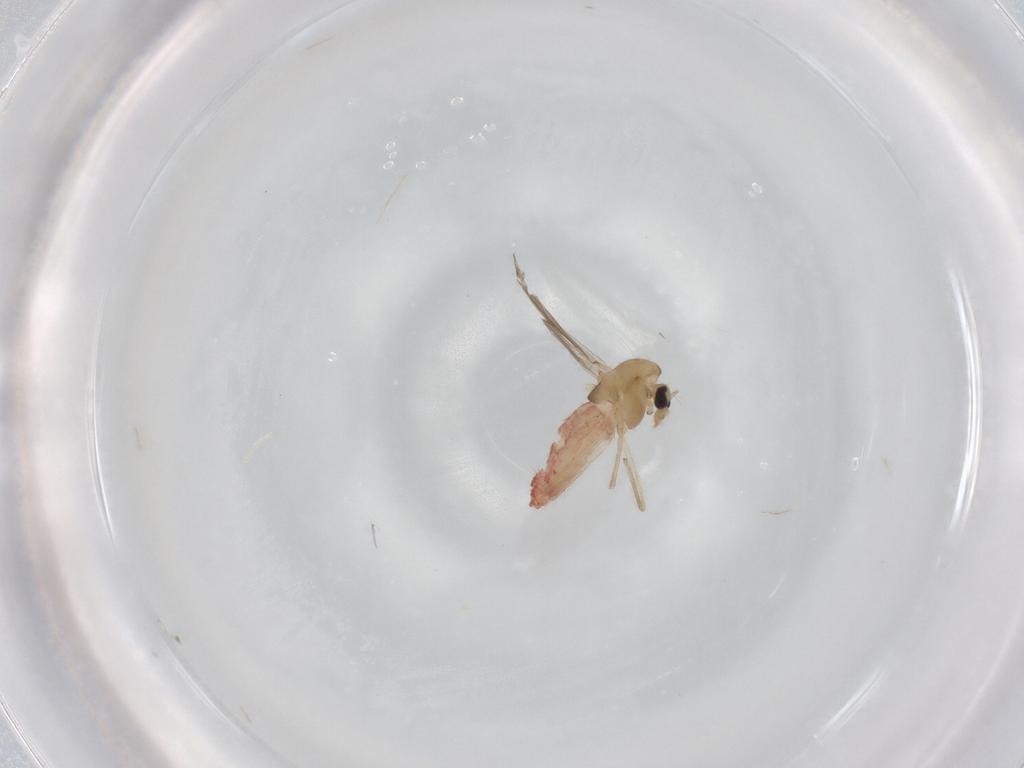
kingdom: Animalia
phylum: Arthropoda
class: Insecta
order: Diptera
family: Chironomidae
